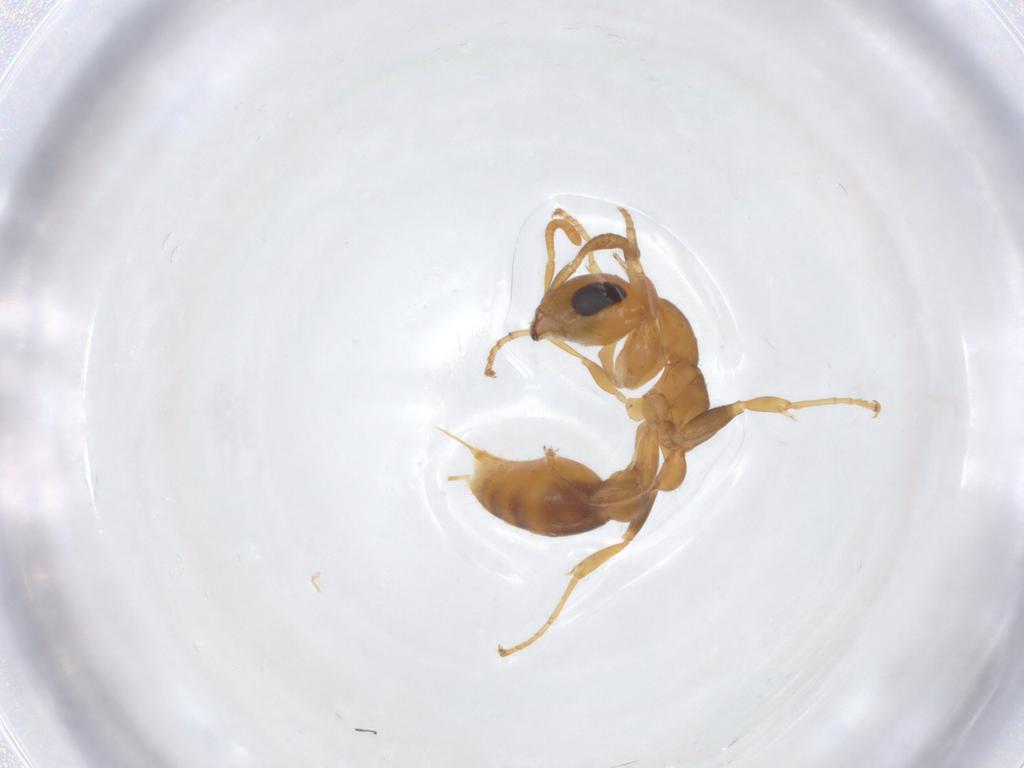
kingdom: Animalia
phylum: Arthropoda
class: Insecta
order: Hymenoptera
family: Formicidae
